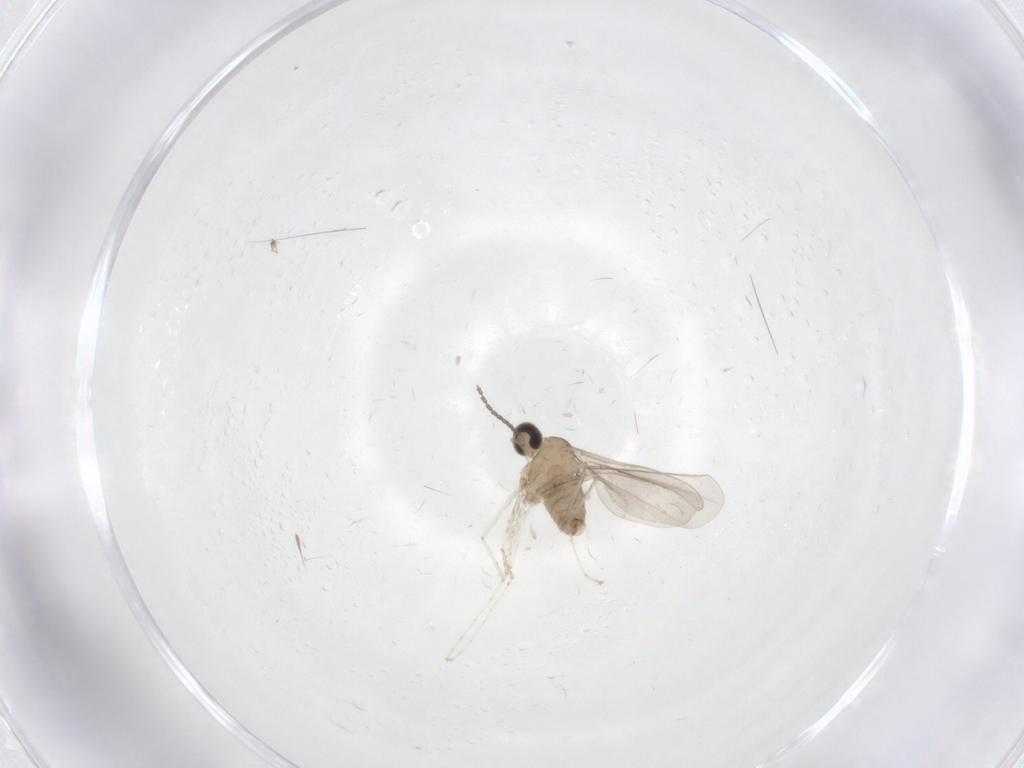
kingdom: Animalia
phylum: Arthropoda
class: Insecta
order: Diptera
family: Cecidomyiidae
